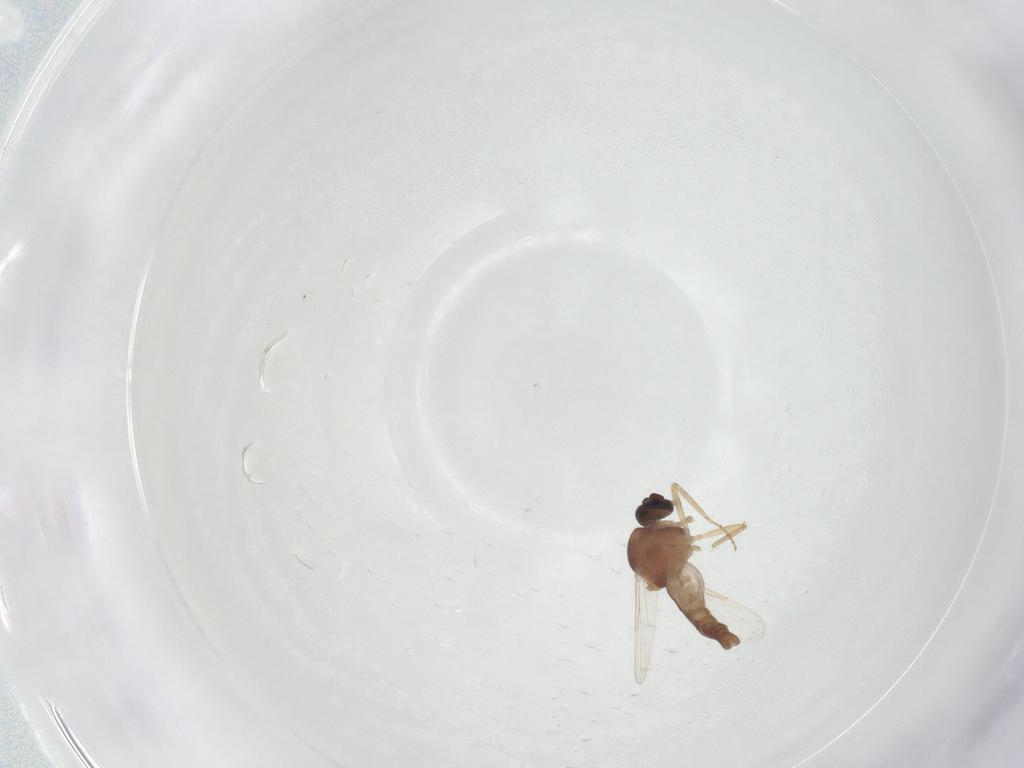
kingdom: Animalia
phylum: Arthropoda
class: Insecta
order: Diptera
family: Ceratopogonidae
